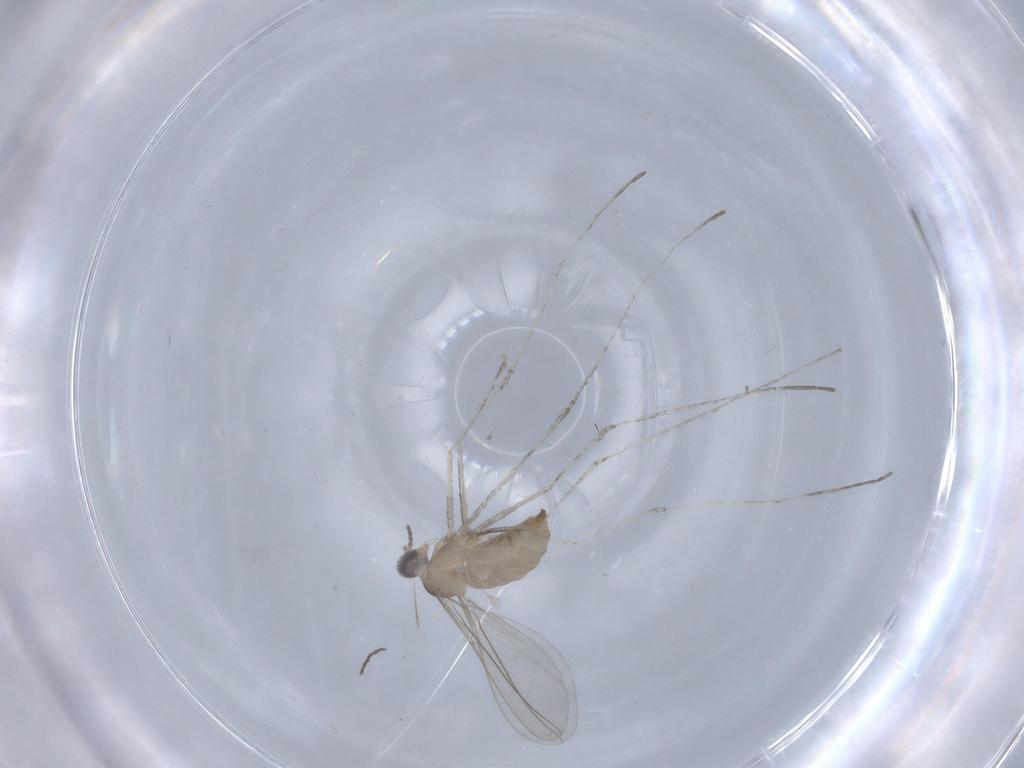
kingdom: Animalia
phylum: Arthropoda
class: Insecta
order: Diptera
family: Cecidomyiidae
